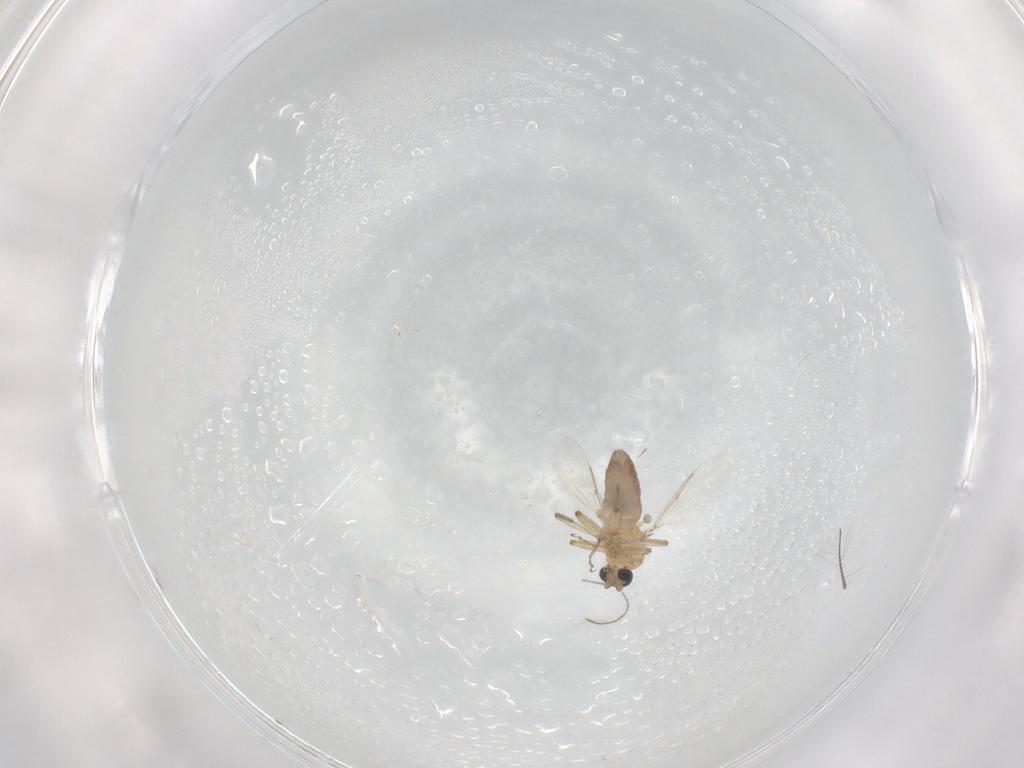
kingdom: Animalia
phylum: Arthropoda
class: Insecta
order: Diptera
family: Ceratopogonidae
